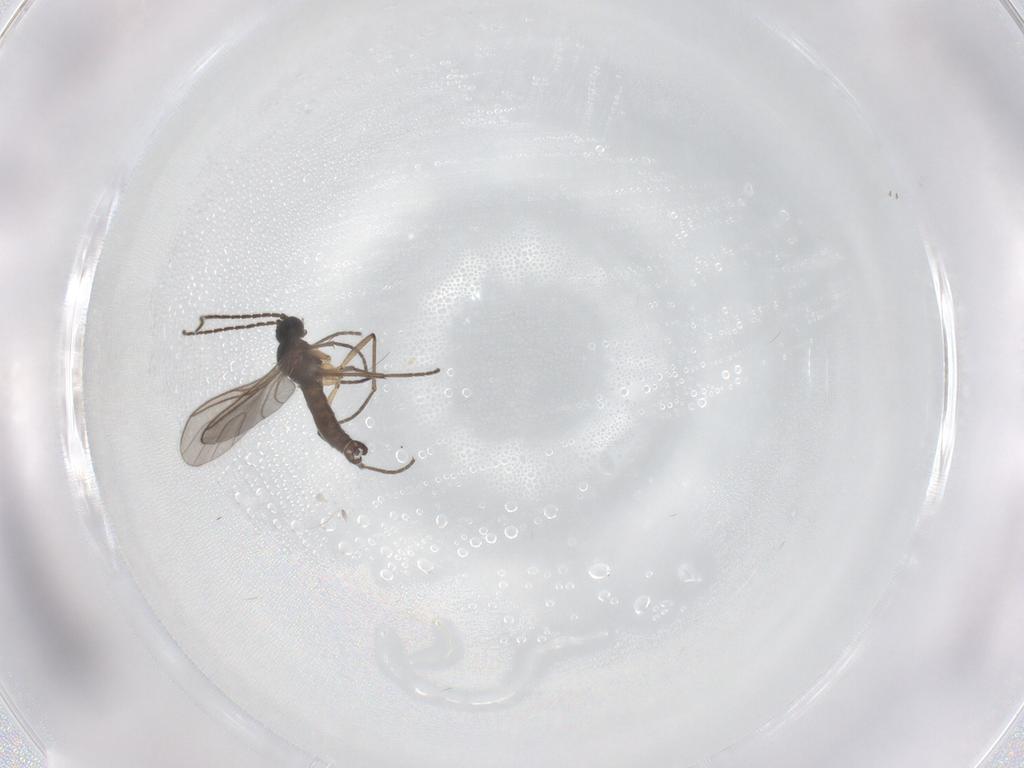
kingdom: Animalia
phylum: Arthropoda
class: Insecta
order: Diptera
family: Sciaridae
